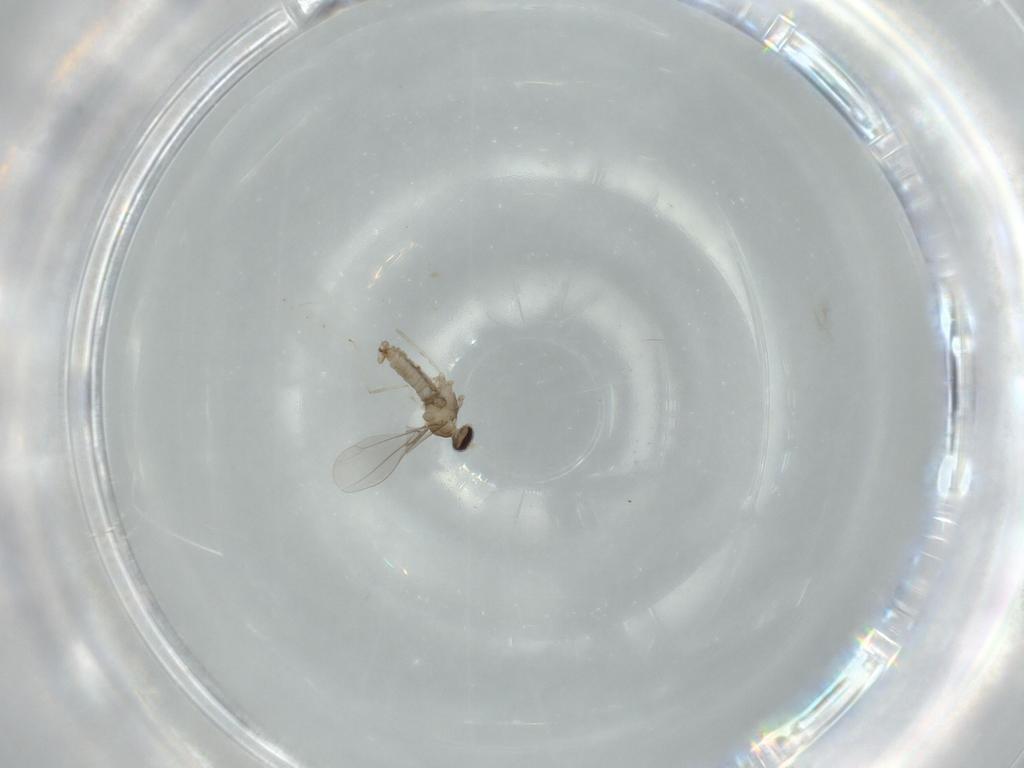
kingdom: Animalia
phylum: Arthropoda
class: Insecta
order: Diptera
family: Cecidomyiidae
